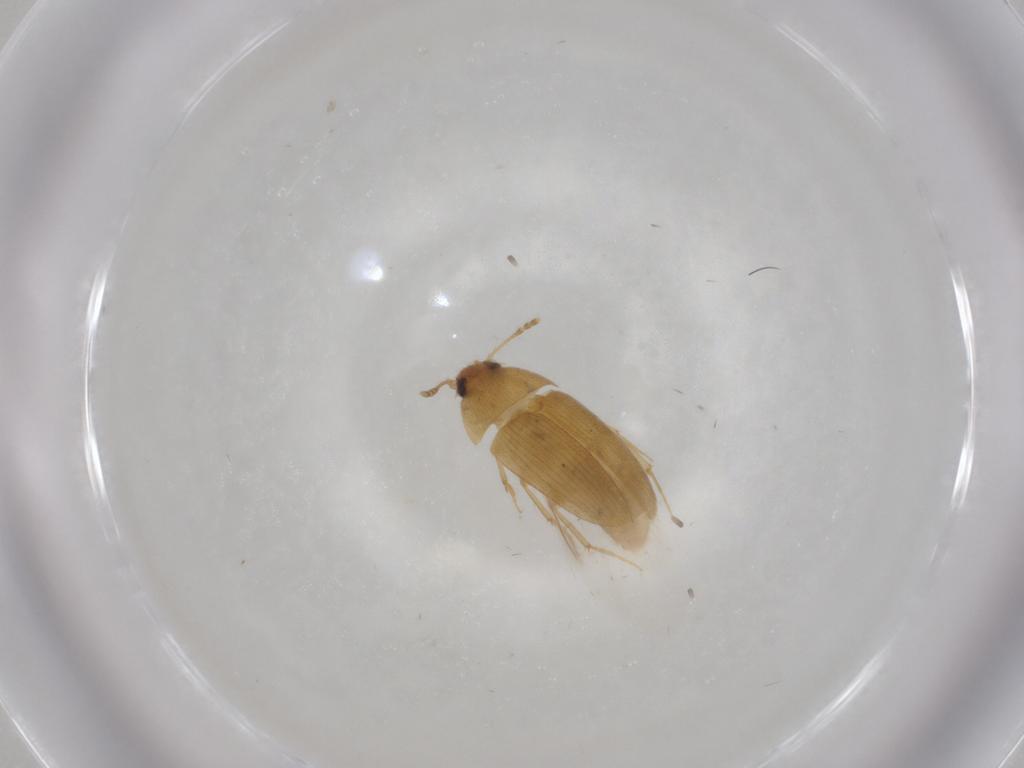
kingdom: Animalia
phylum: Arthropoda
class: Insecta
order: Coleoptera
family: Mycetophagidae
